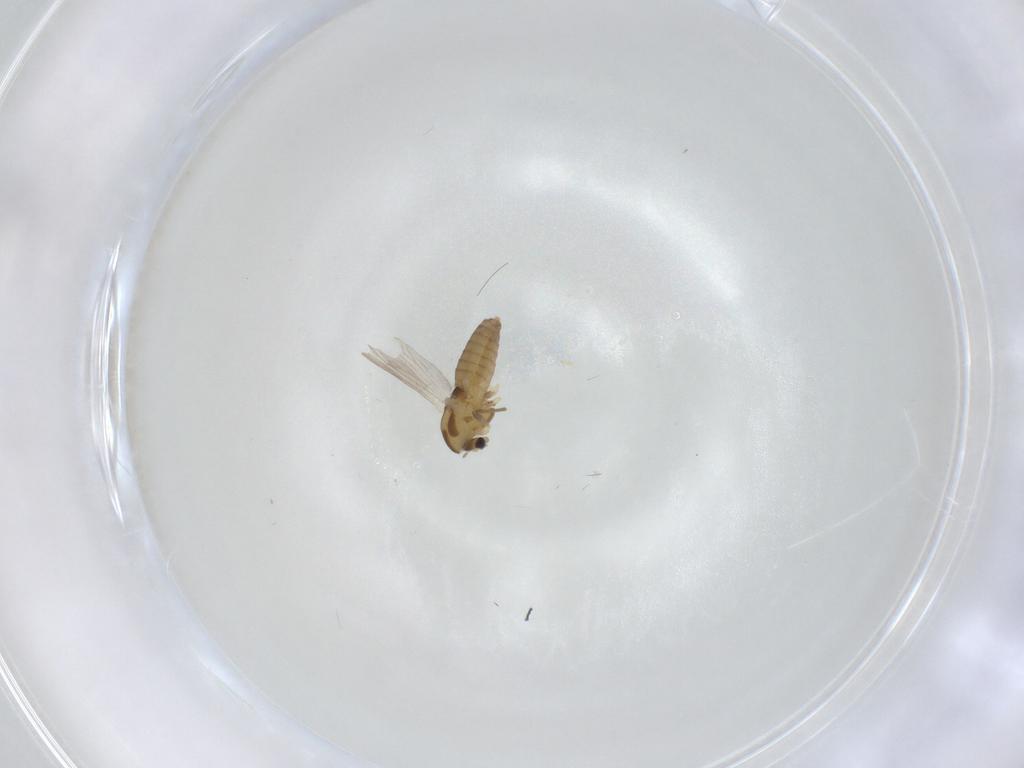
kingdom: Animalia
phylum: Arthropoda
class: Insecta
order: Diptera
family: Chironomidae
